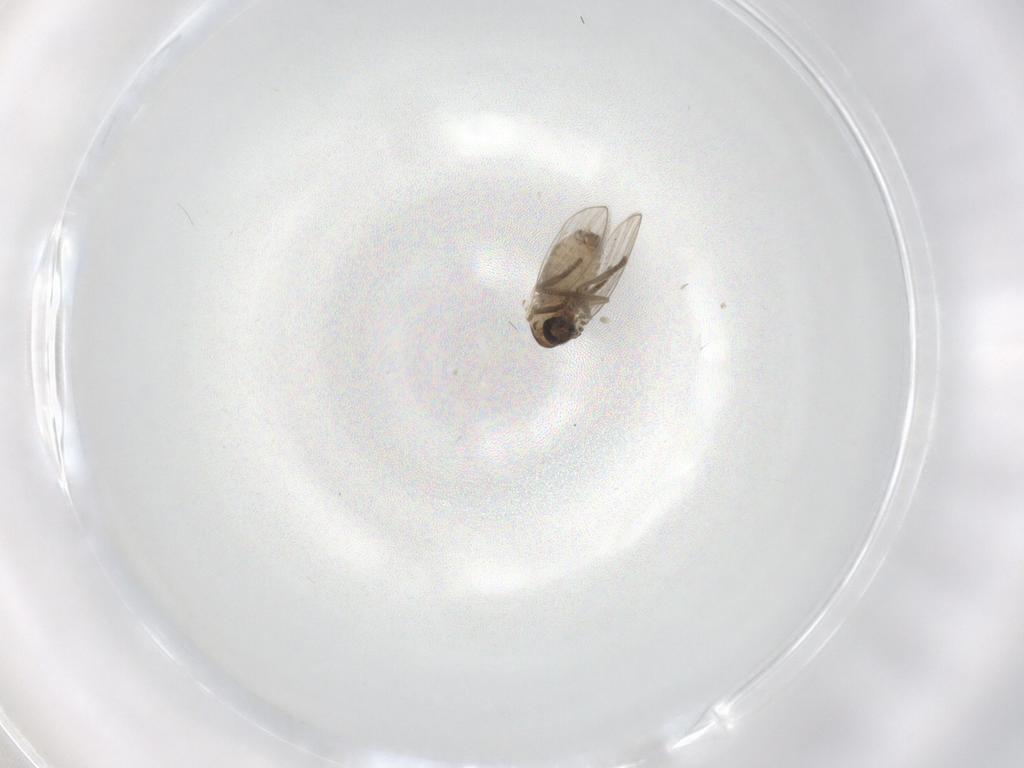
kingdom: Animalia
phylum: Arthropoda
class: Insecta
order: Diptera
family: Psychodidae
